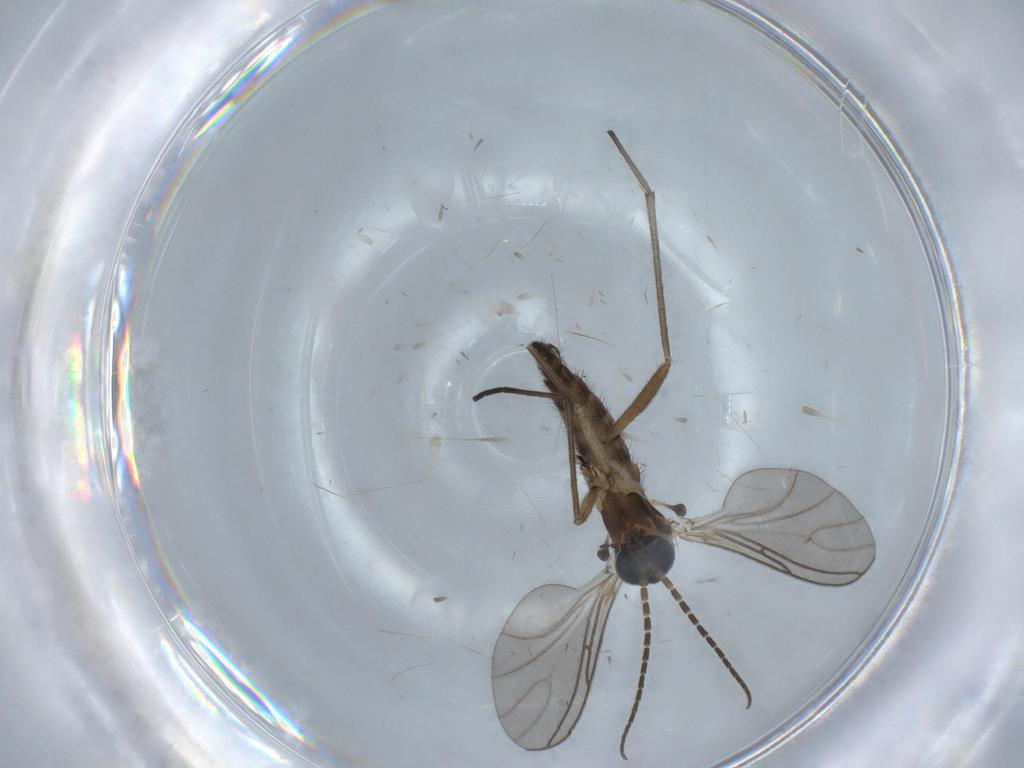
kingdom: Animalia
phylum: Arthropoda
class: Insecta
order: Diptera
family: Sciaridae
